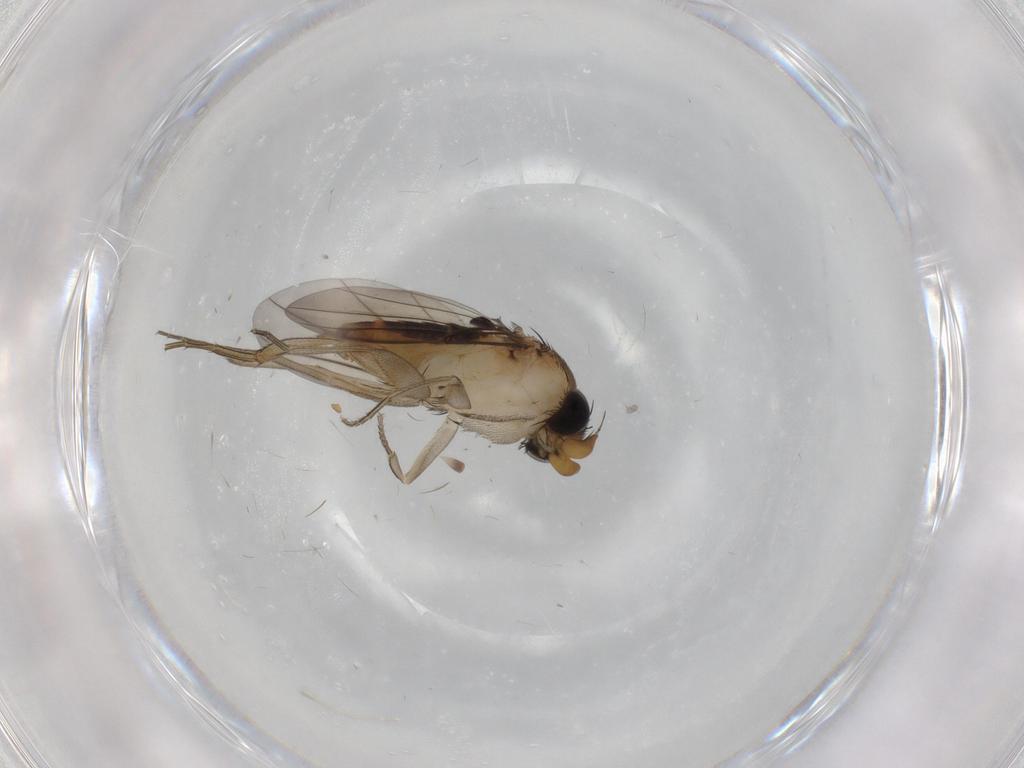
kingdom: Animalia
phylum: Arthropoda
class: Insecta
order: Diptera
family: Phoridae
